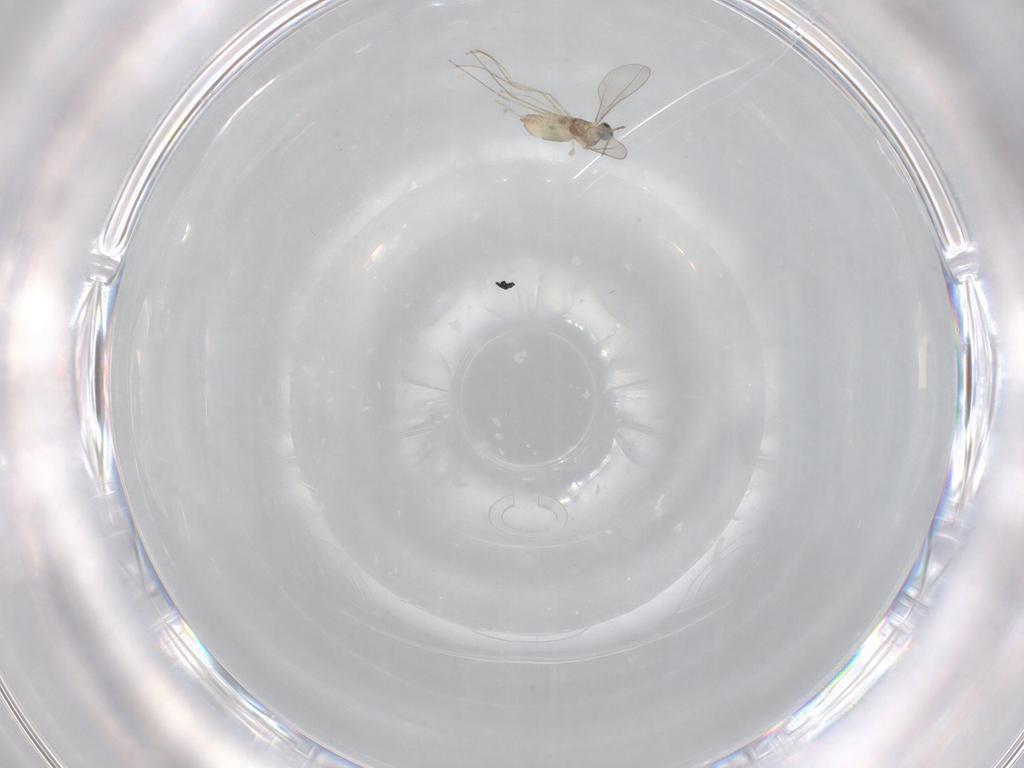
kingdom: Animalia
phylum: Arthropoda
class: Insecta
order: Diptera
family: Cecidomyiidae
